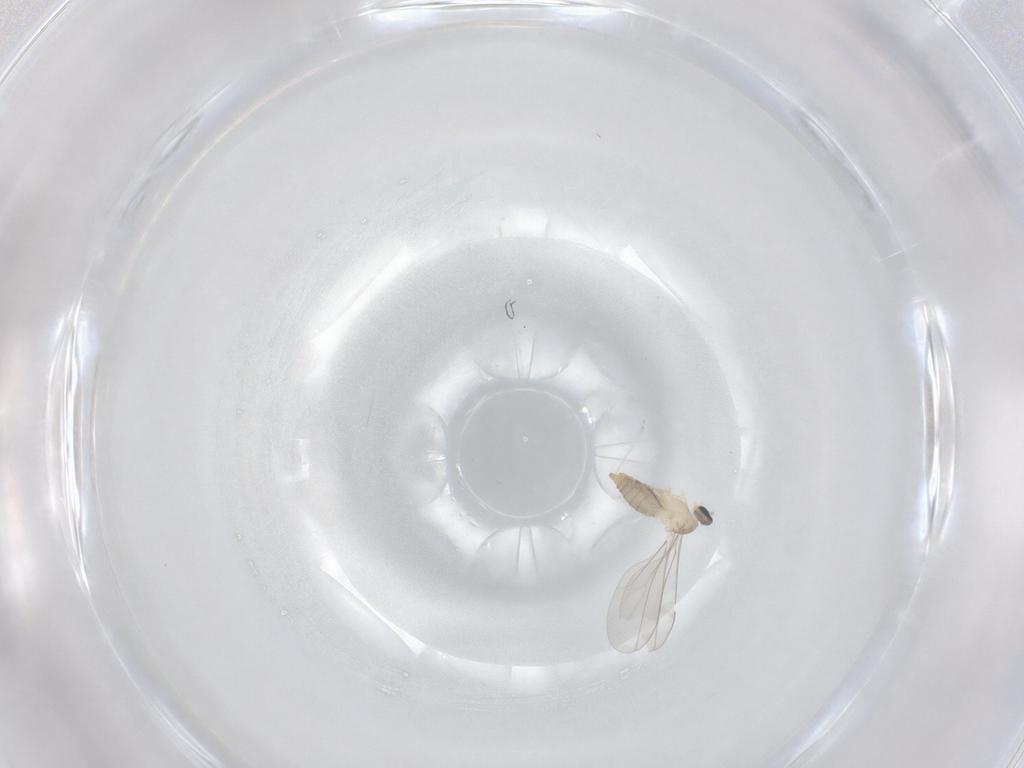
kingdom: Animalia
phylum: Arthropoda
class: Insecta
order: Diptera
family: Cecidomyiidae
